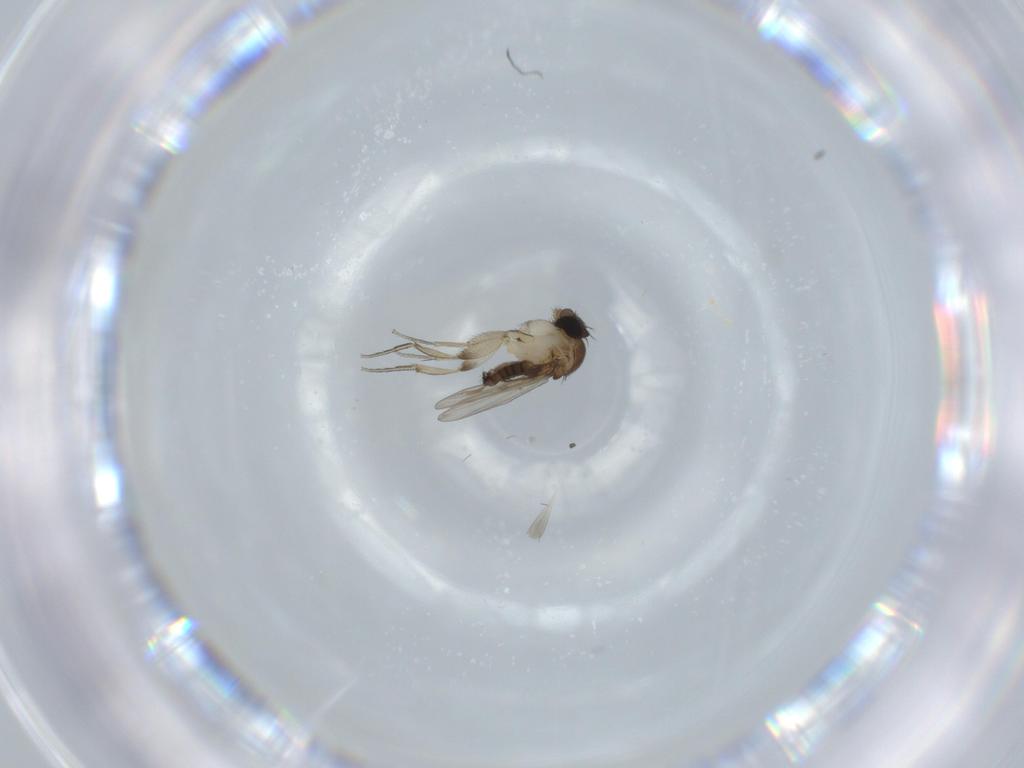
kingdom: Animalia
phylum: Arthropoda
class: Insecta
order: Diptera
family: Phoridae
